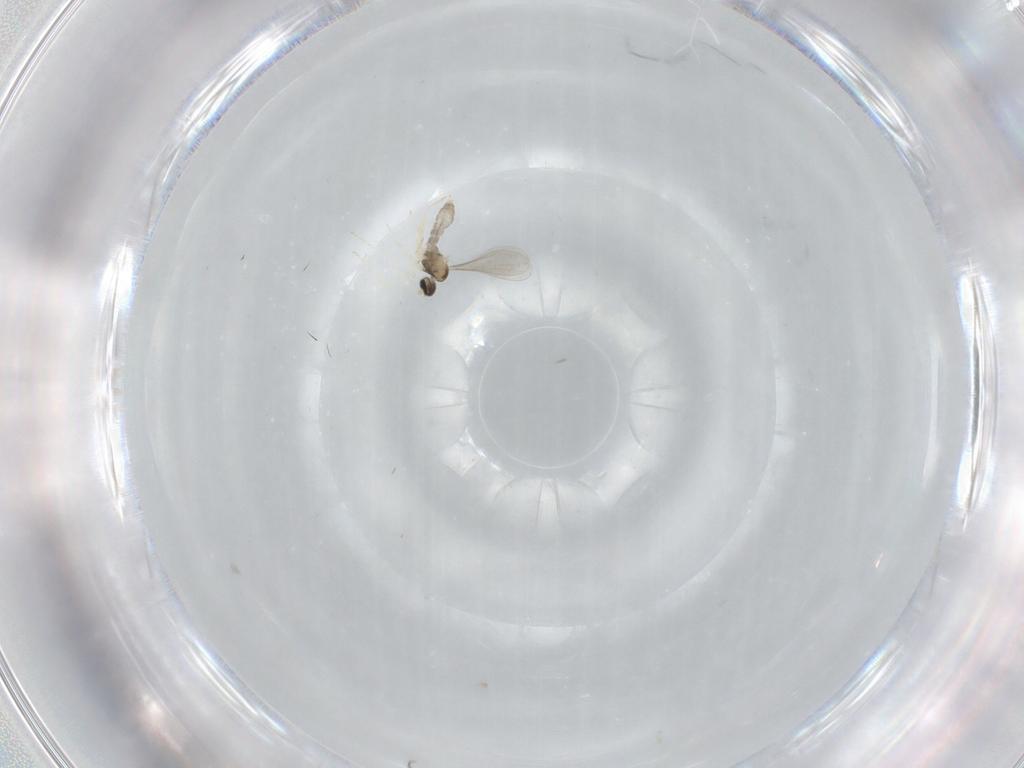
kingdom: Animalia
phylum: Arthropoda
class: Insecta
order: Diptera
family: Cecidomyiidae
